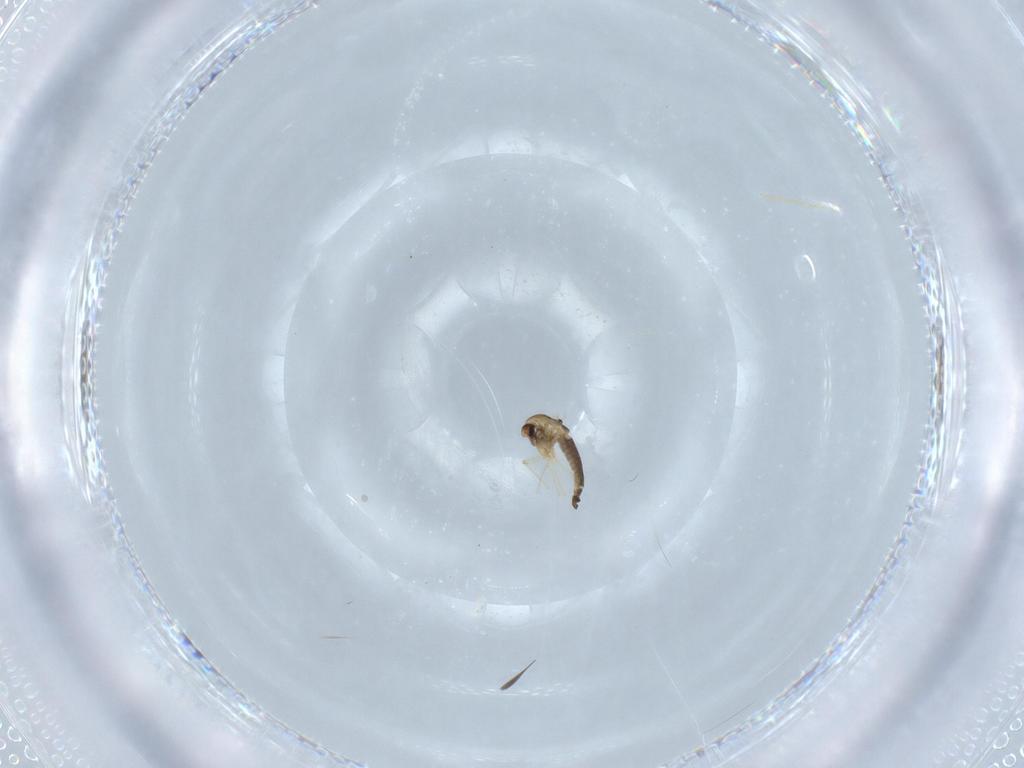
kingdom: Animalia
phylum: Arthropoda
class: Insecta
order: Diptera
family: Chironomidae
